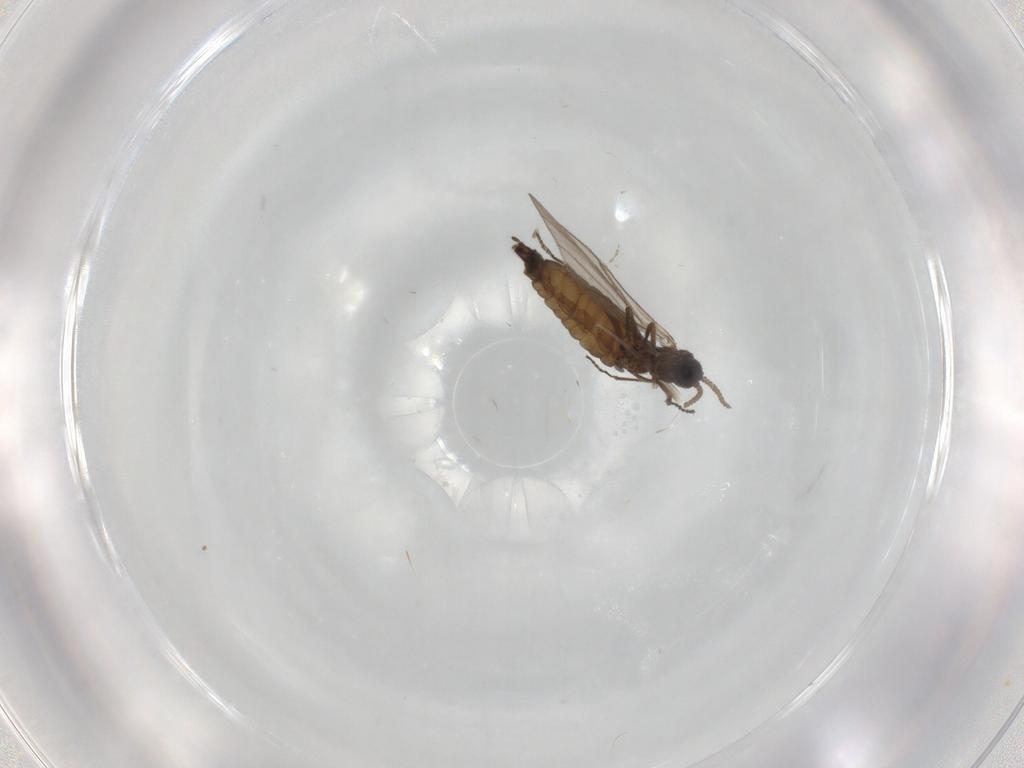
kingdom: Animalia
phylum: Arthropoda
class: Insecta
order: Diptera
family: Sciaridae
